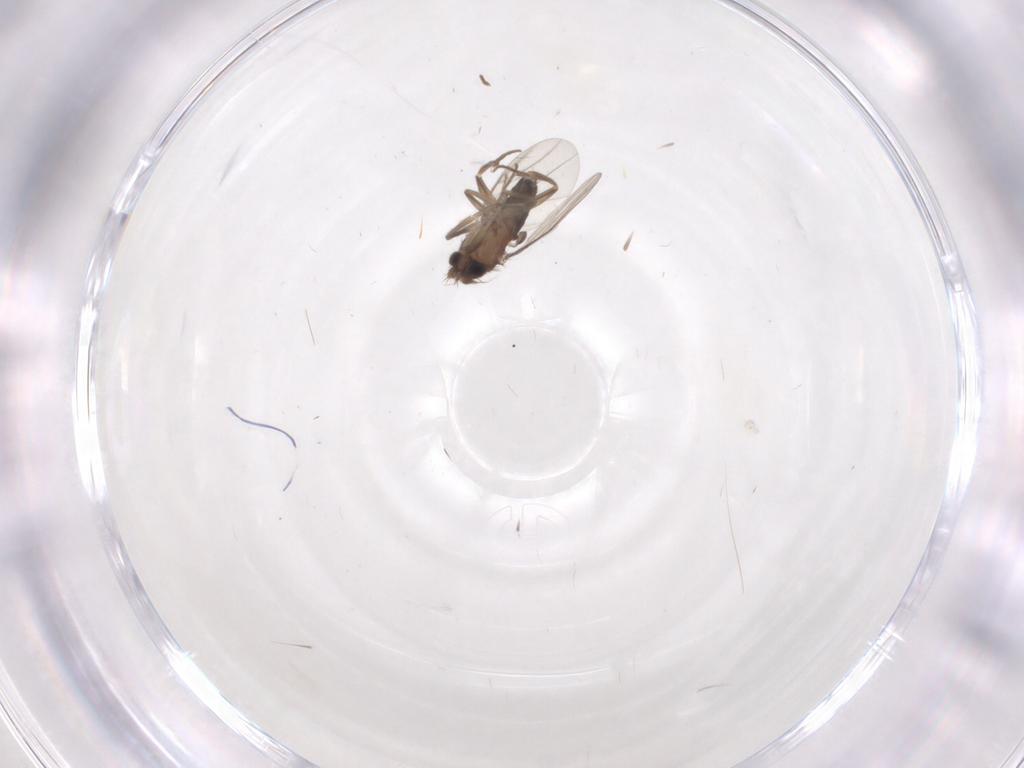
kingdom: Animalia
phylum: Arthropoda
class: Insecta
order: Diptera
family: Phoridae
